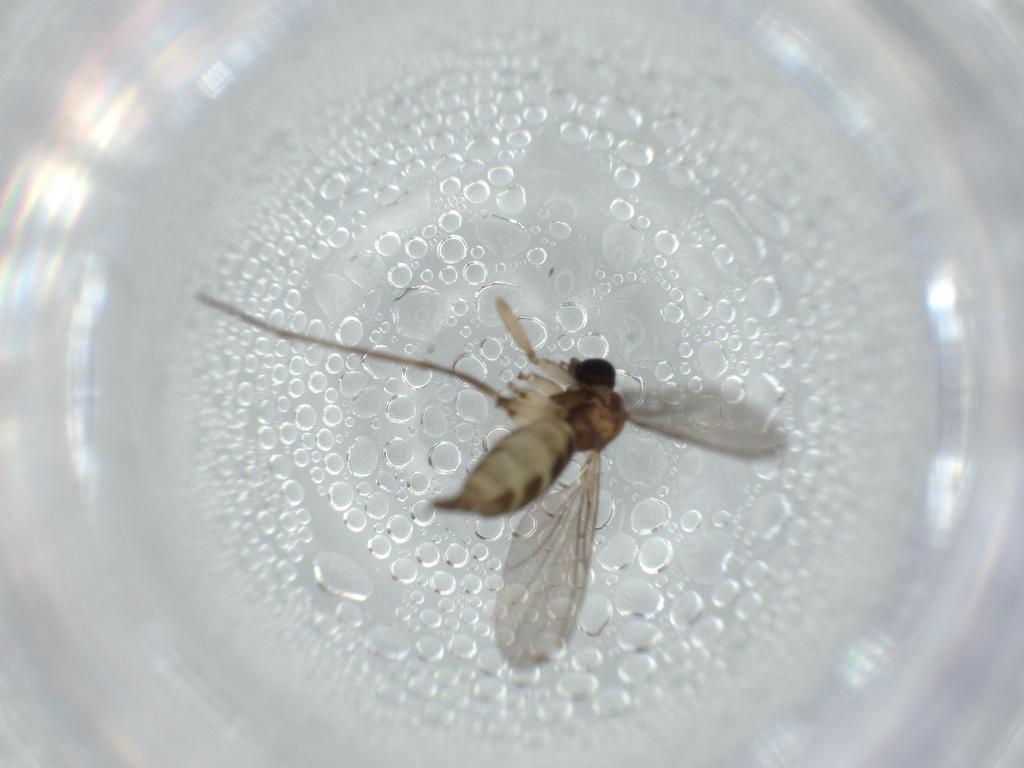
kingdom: Animalia
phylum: Arthropoda
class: Insecta
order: Diptera
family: Sciaridae
